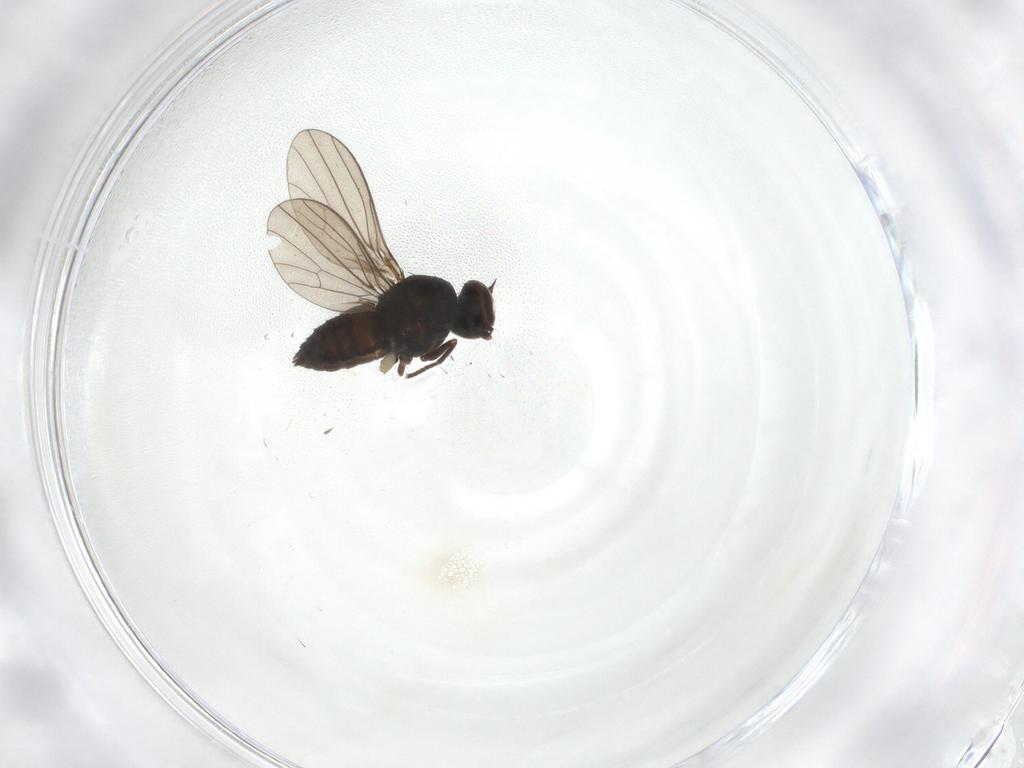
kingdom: Animalia
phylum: Arthropoda
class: Insecta
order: Diptera
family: Dolichopodidae
